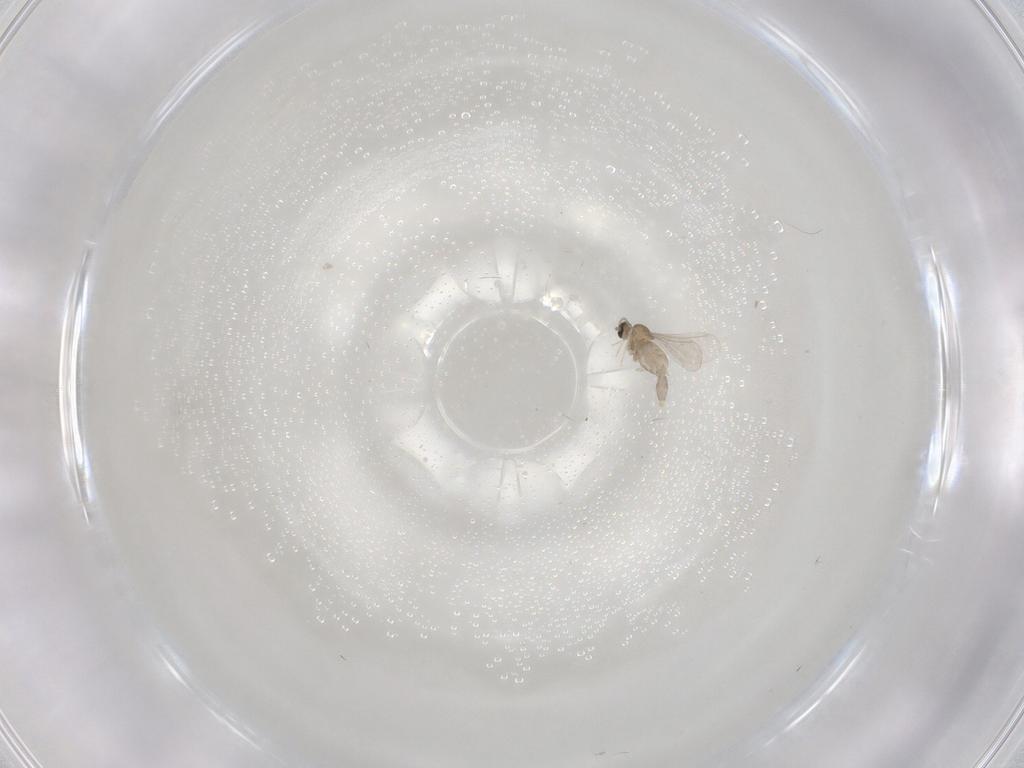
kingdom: Animalia
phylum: Arthropoda
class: Insecta
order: Diptera
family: Cecidomyiidae
